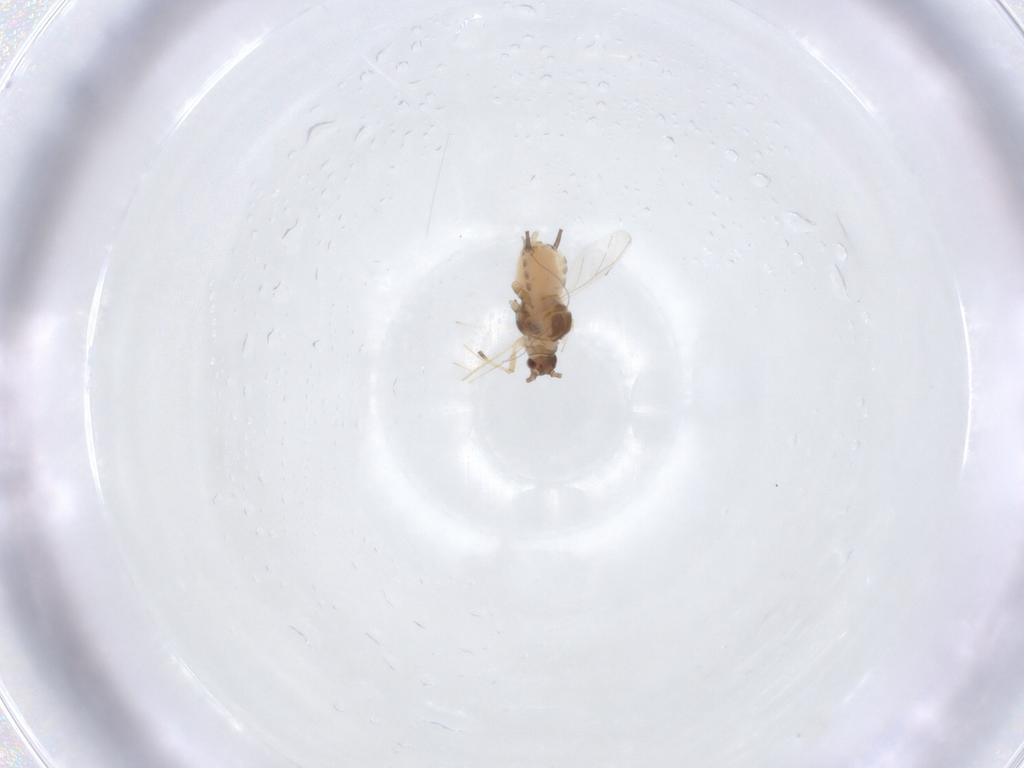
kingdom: Animalia
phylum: Arthropoda
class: Insecta
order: Hemiptera
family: Aphididae
